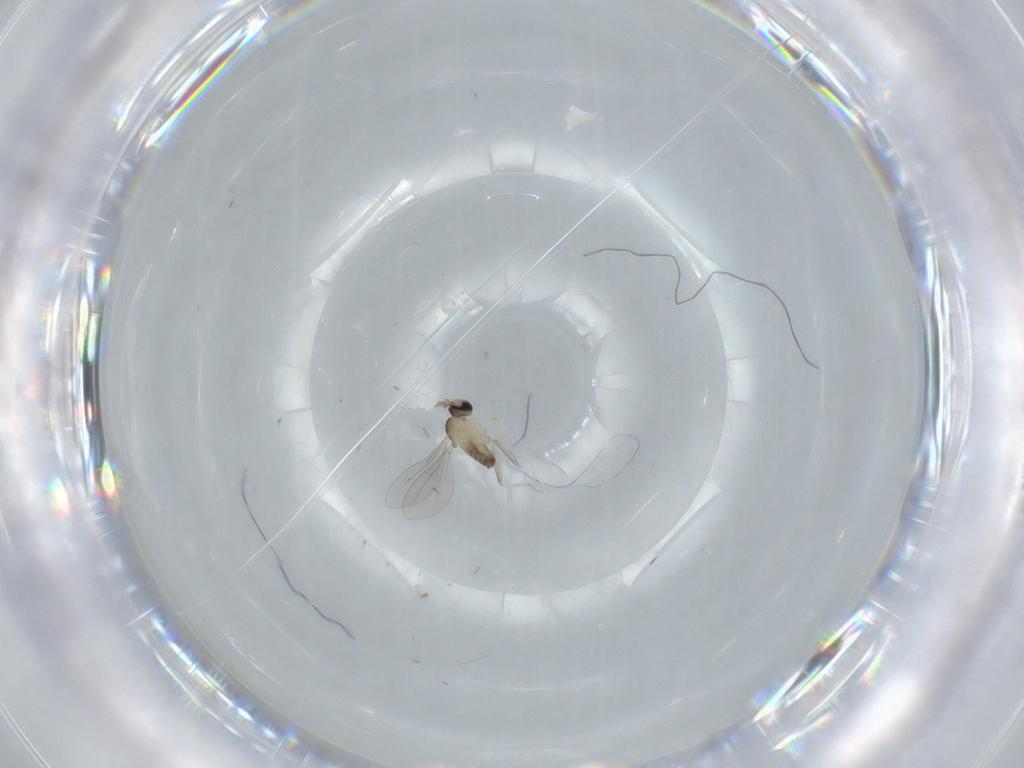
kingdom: Animalia
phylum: Arthropoda
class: Insecta
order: Diptera
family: Cecidomyiidae
